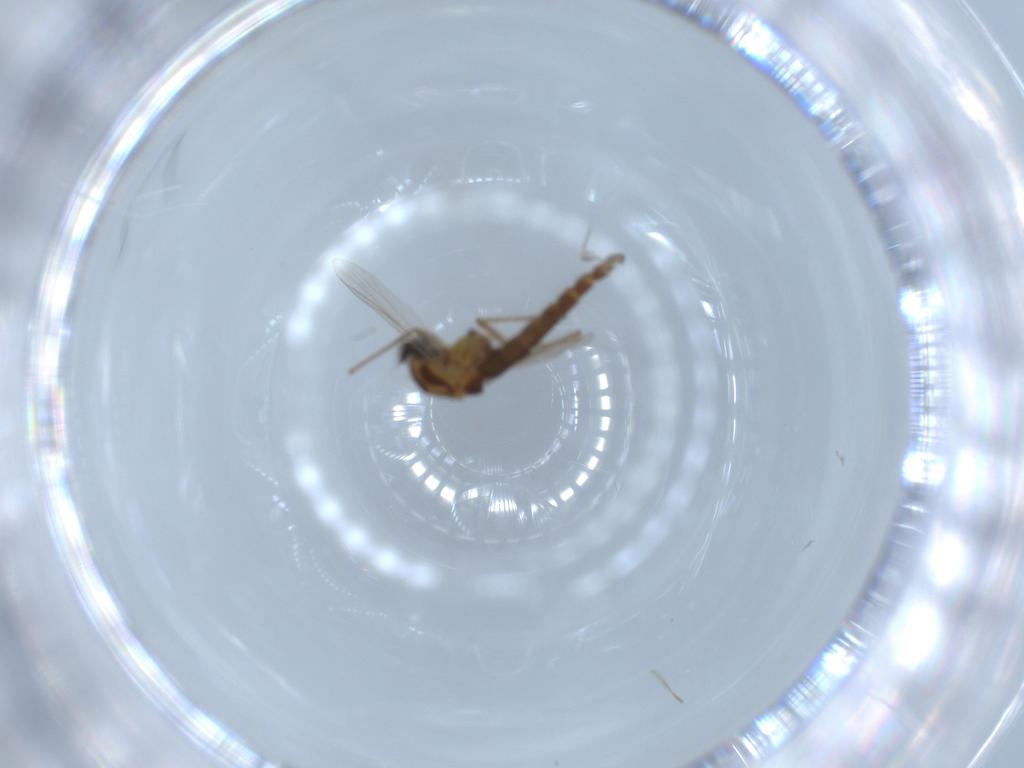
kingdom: Animalia
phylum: Arthropoda
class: Insecta
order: Diptera
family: Chironomidae
